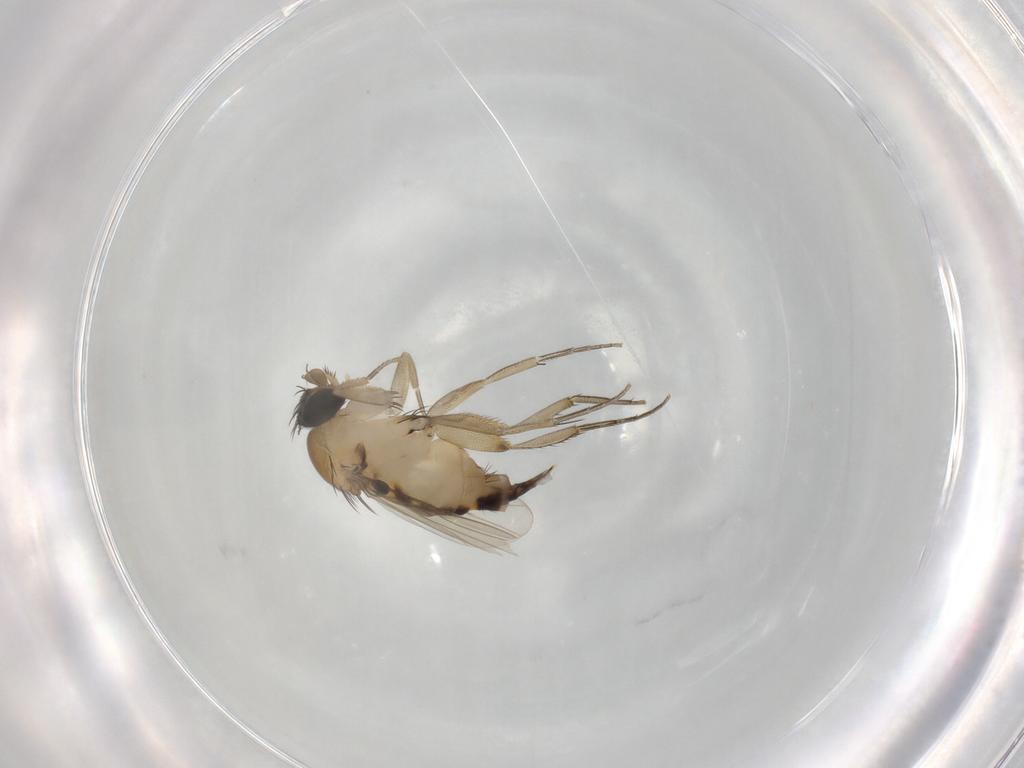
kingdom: Animalia
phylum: Arthropoda
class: Insecta
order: Diptera
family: Phoridae
